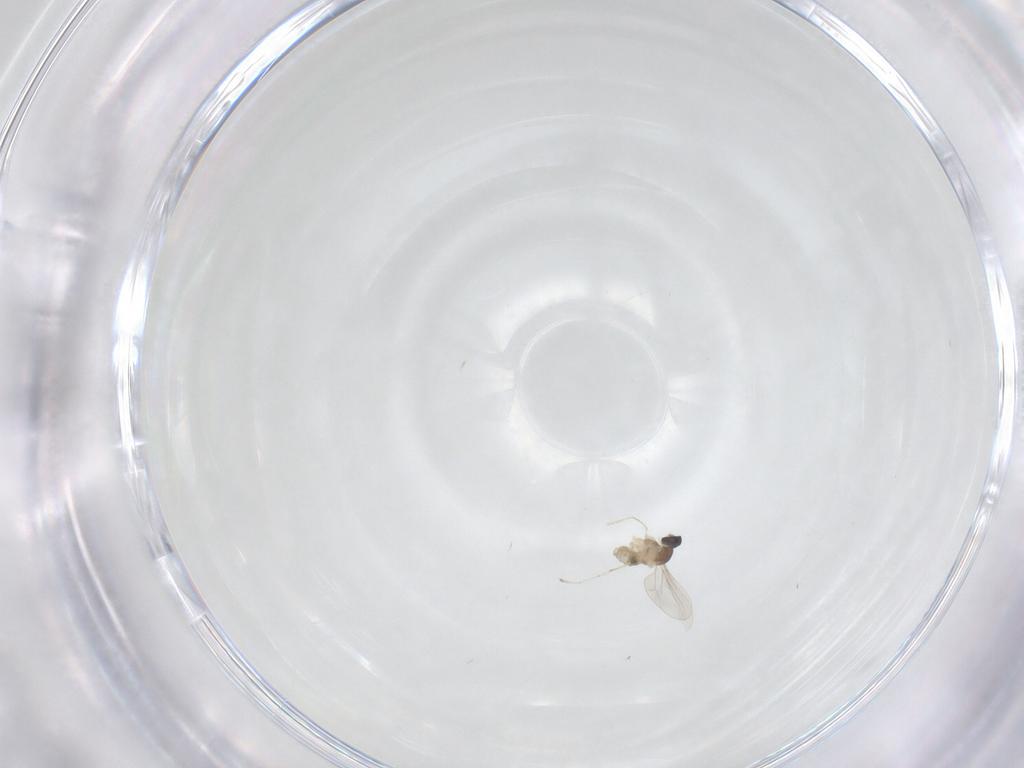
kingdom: Animalia
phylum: Arthropoda
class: Insecta
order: Diptera
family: Cecidomyiidae
